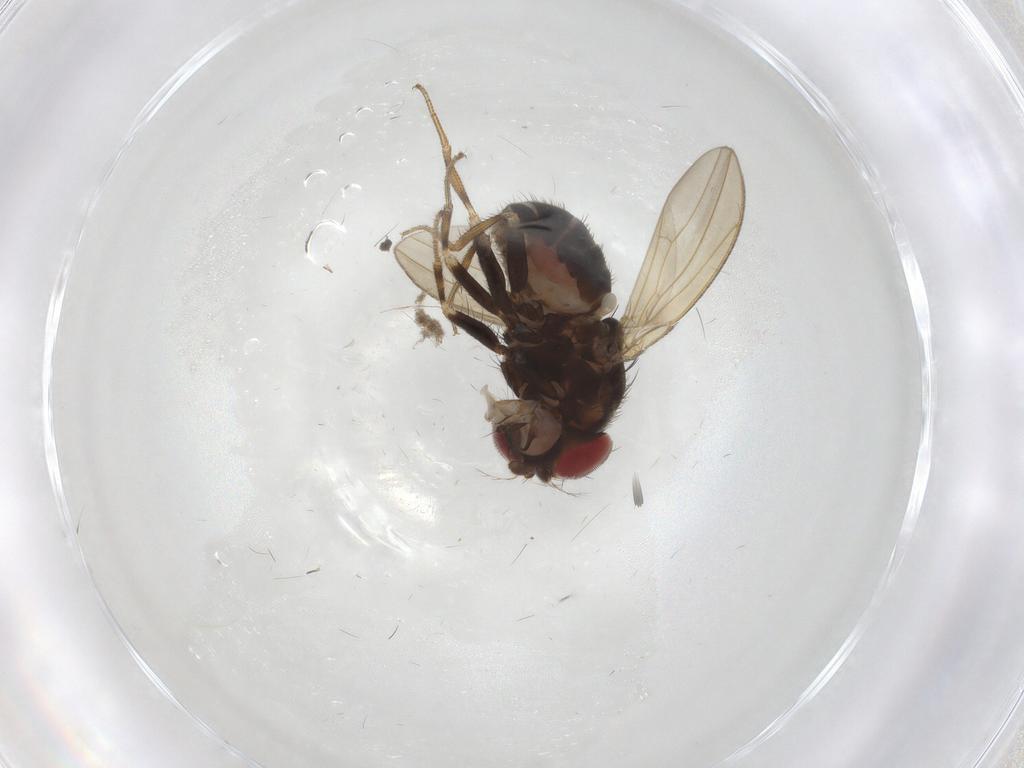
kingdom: Animalia
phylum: Arthropoda
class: Insecta
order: Diptera
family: Drosophilidae
